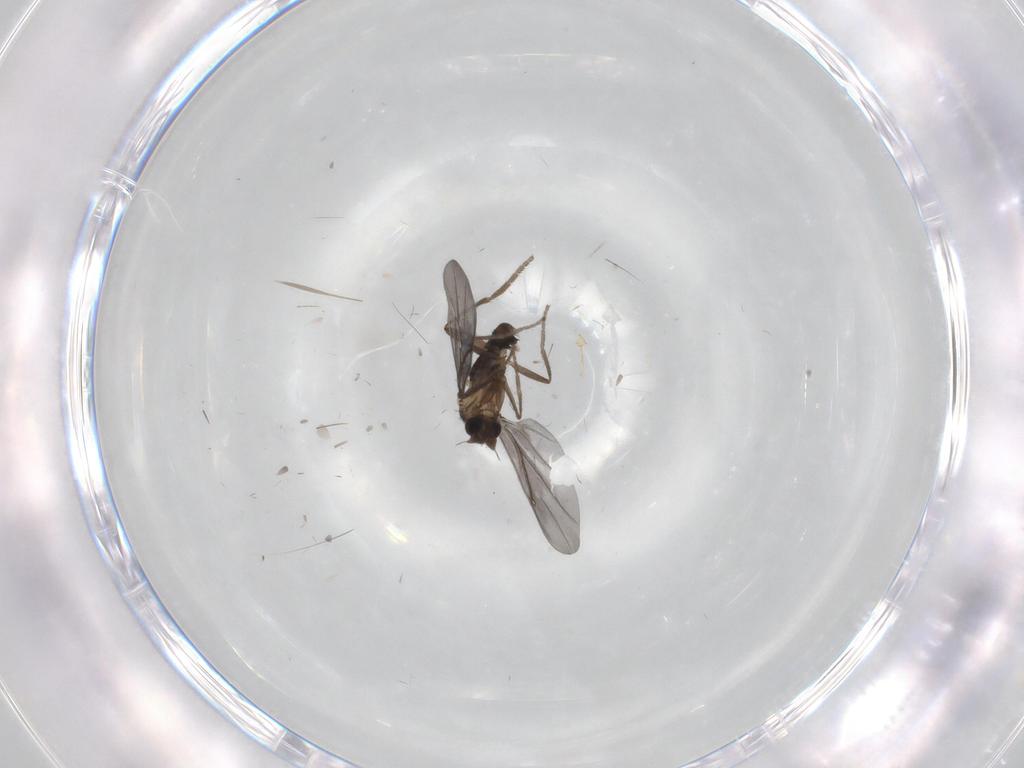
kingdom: Animalia
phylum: Arthropoda
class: Insecta
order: Diptera
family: Phoridae
